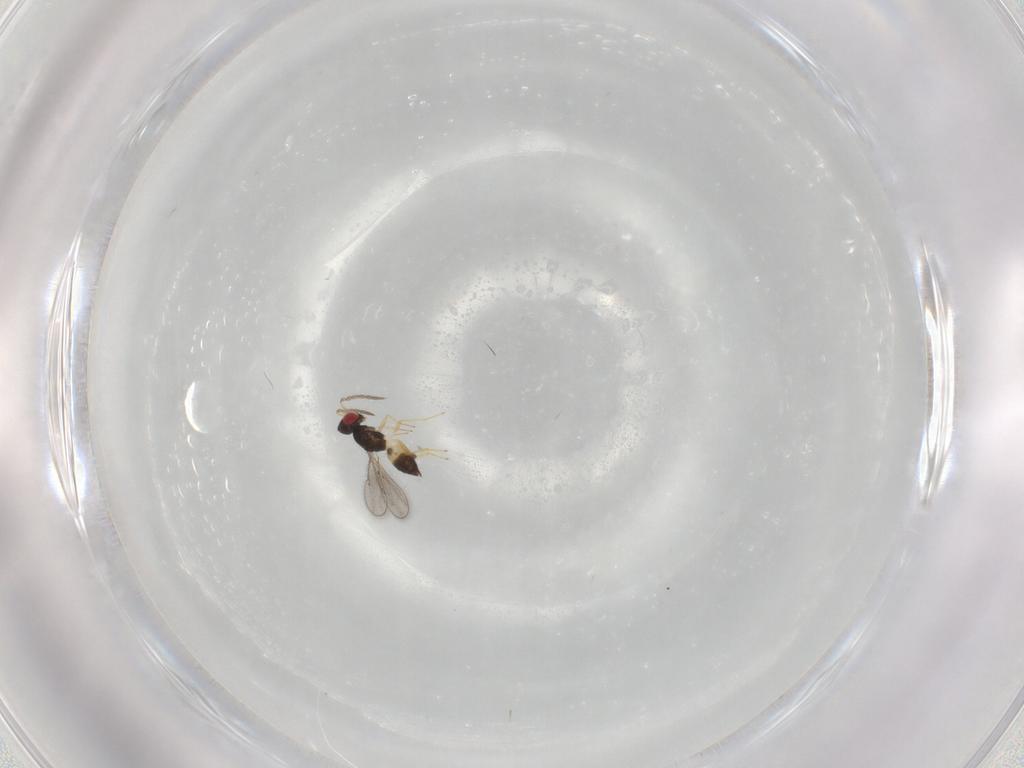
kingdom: Animalia
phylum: Arthropoda
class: Insecta
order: Hymenoptera
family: Eulophidae
